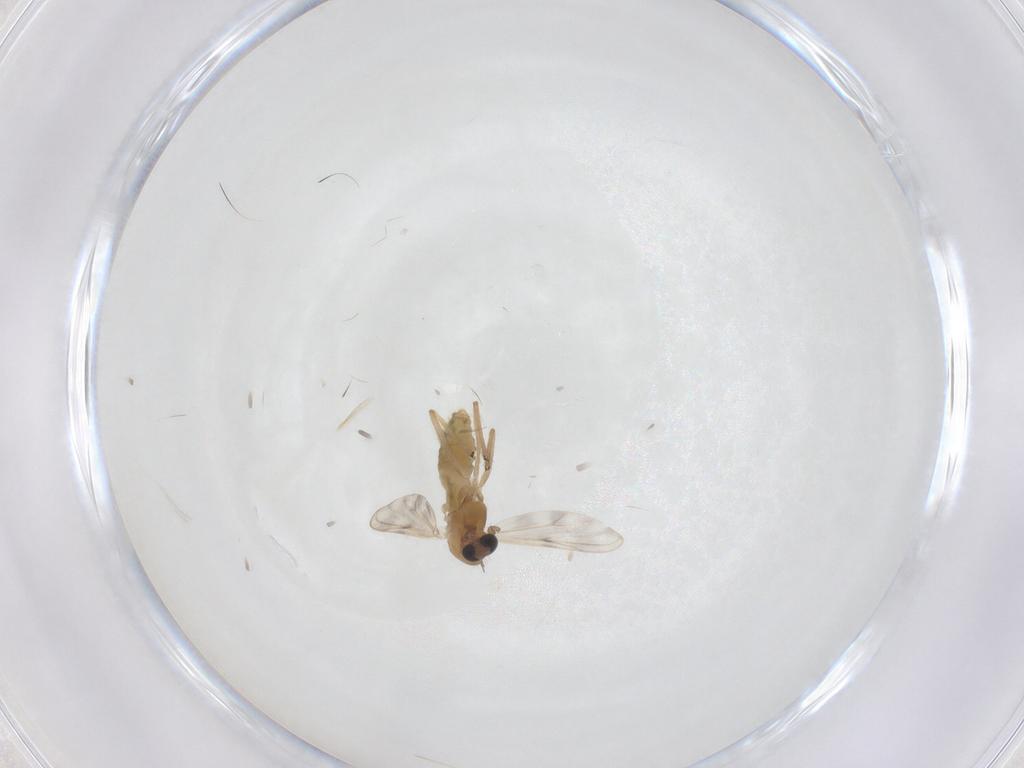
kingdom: Animalia
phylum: Arthropoda
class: Insecta
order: Diptera
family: Chironomidae
